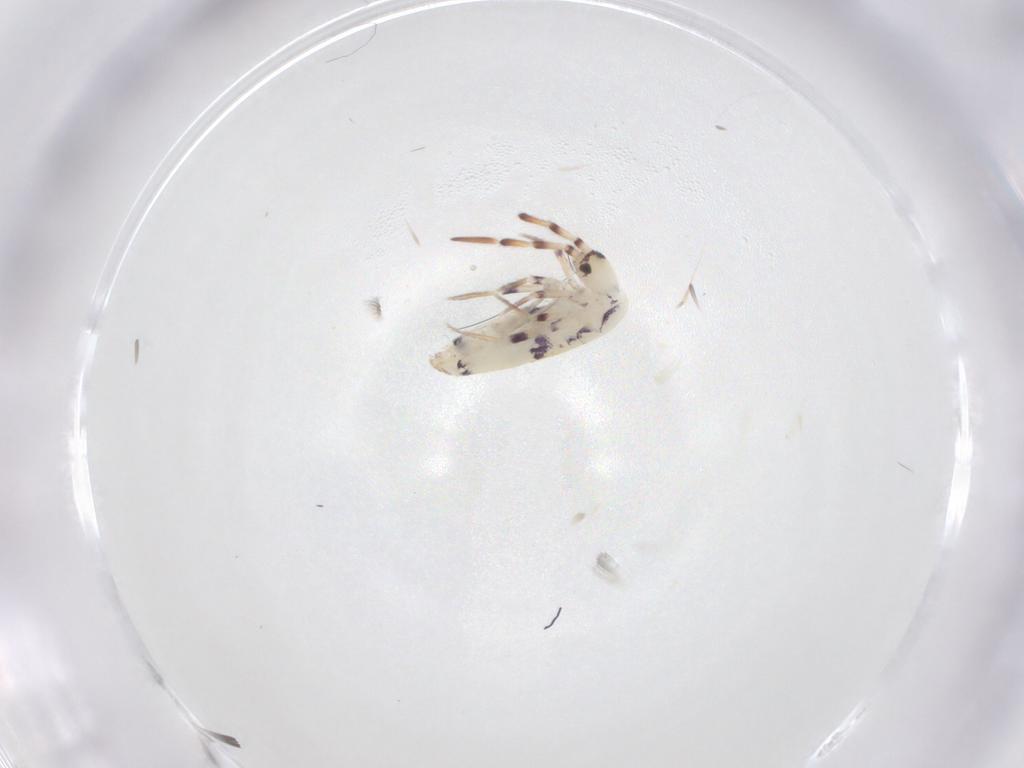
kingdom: Animalia
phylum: Arthropoda
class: Collembola
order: Entomobryomorpha
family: Entomobryidae
